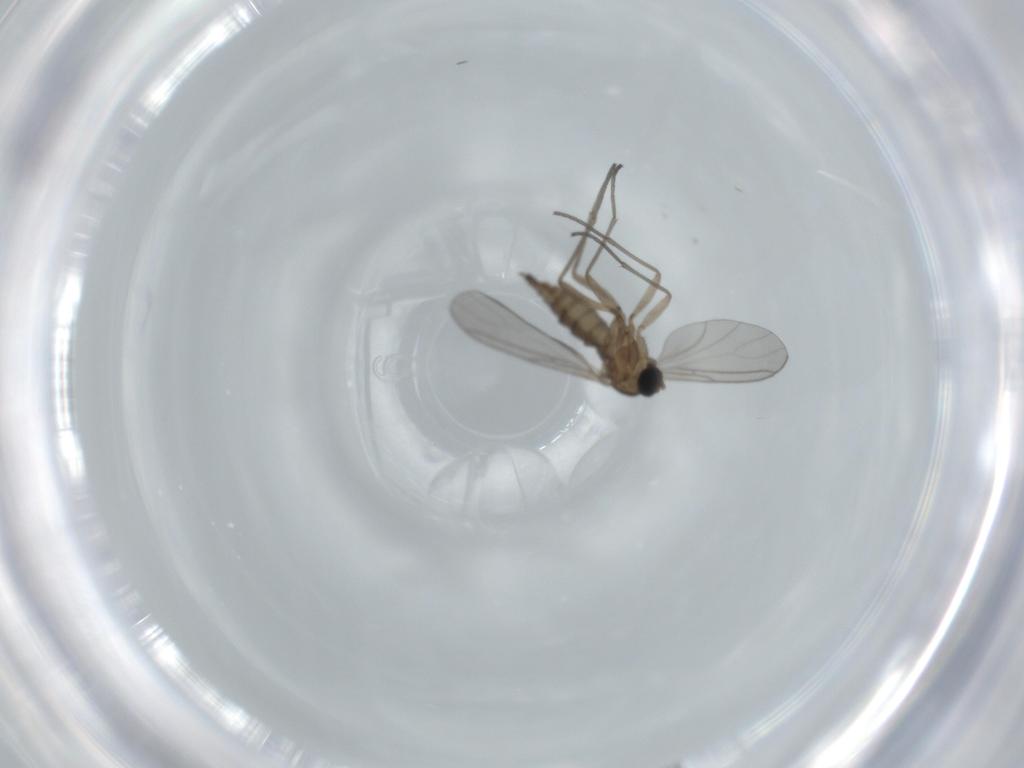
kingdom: Animalia
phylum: Arthropoda
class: Insecta
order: Diptera
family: Sciaridae
